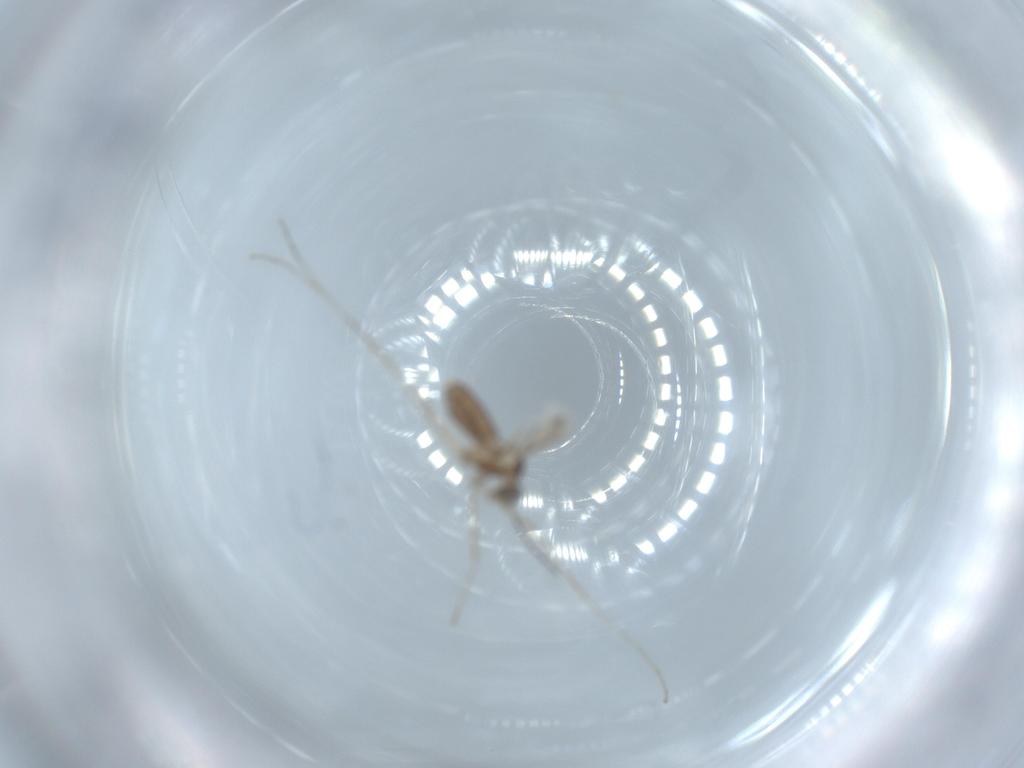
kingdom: Animalia
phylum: Arthropoda
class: Insecta
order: Diptera
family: Cecidomyiidae
